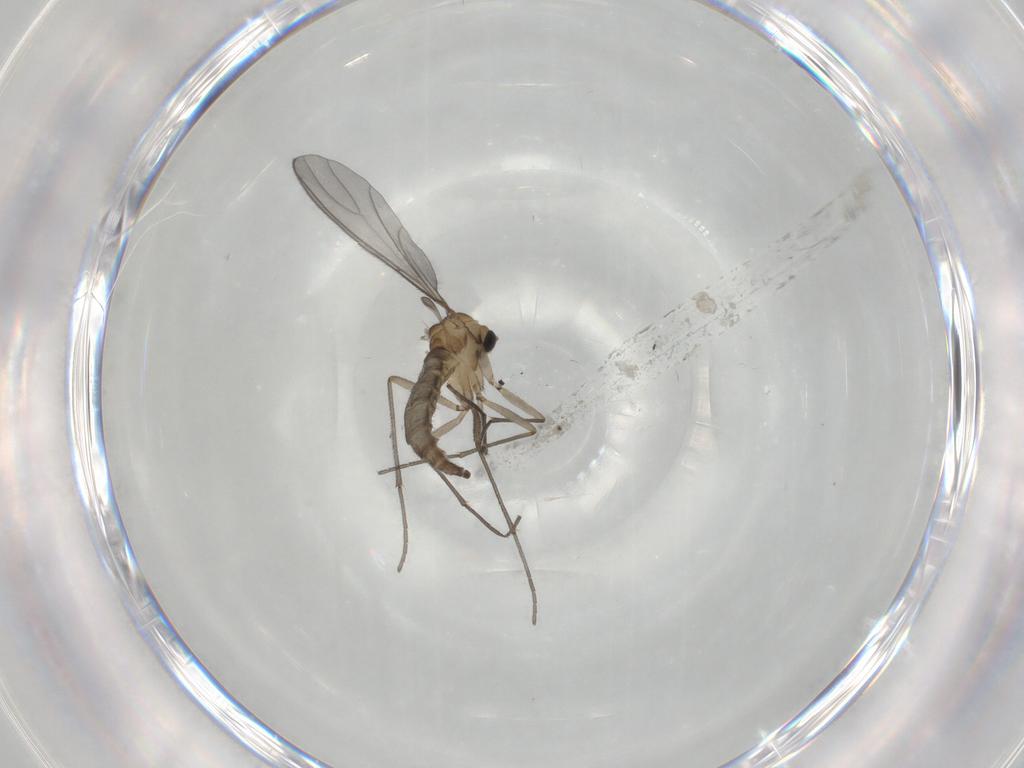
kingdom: Animalia
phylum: Arthropoda
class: Insecta
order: Diptera
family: Sciaridae
